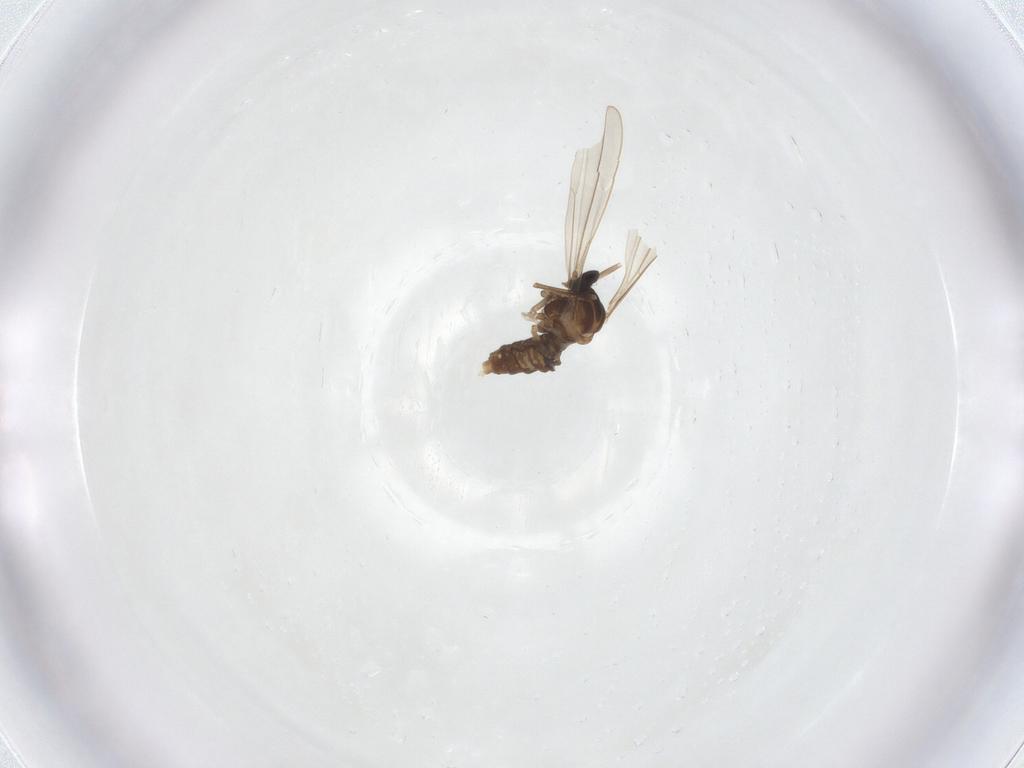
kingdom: Animalia
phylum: Arthropoda
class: Insecta
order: Diptera
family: Cecidomyiidae
